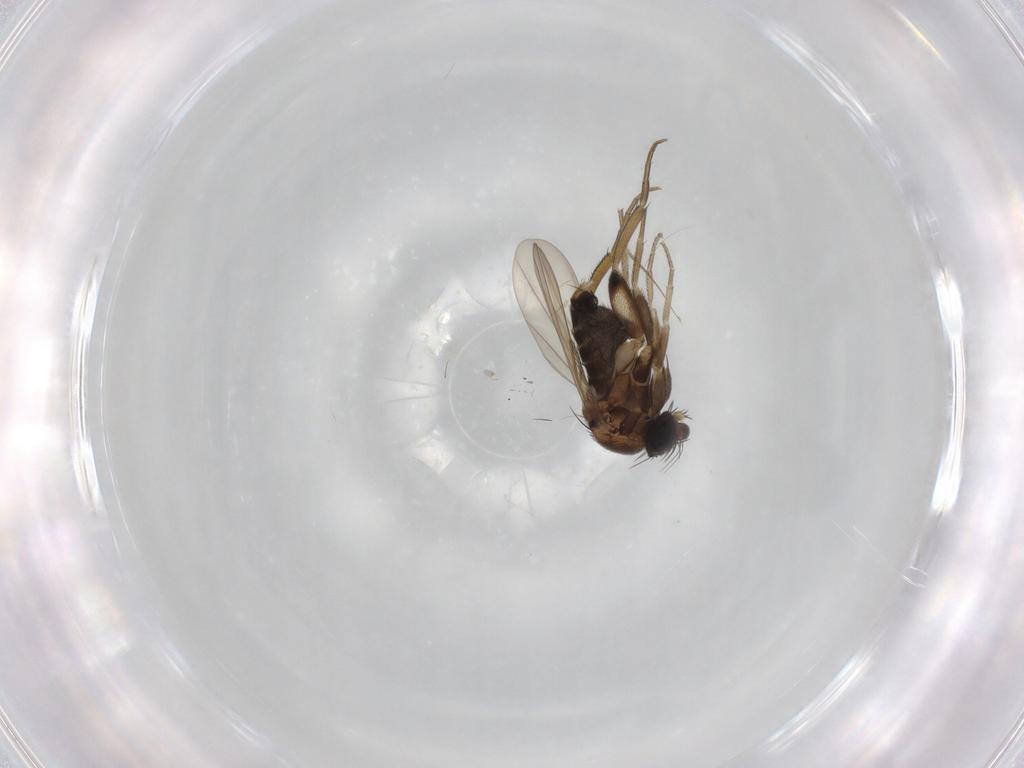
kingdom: Animalia
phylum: Arthropoda
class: Insecta
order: Diptera
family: Phoridae
